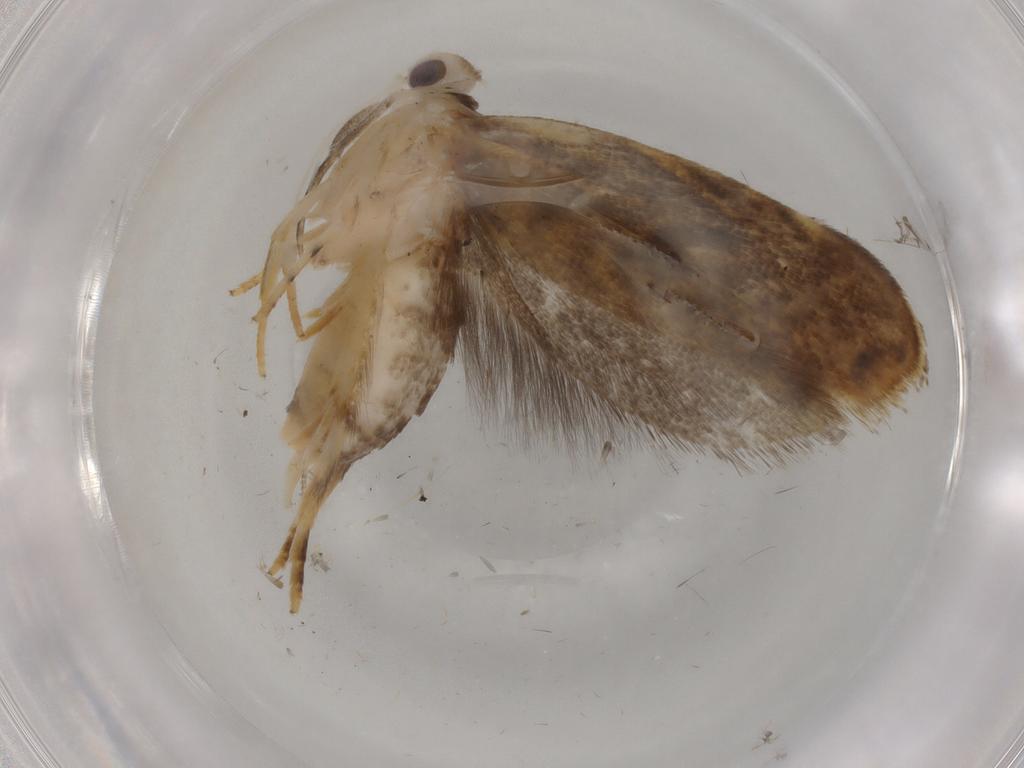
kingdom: Animalia
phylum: Arthropoda
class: Insecta
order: Lepidoptera
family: Gelechiidae
